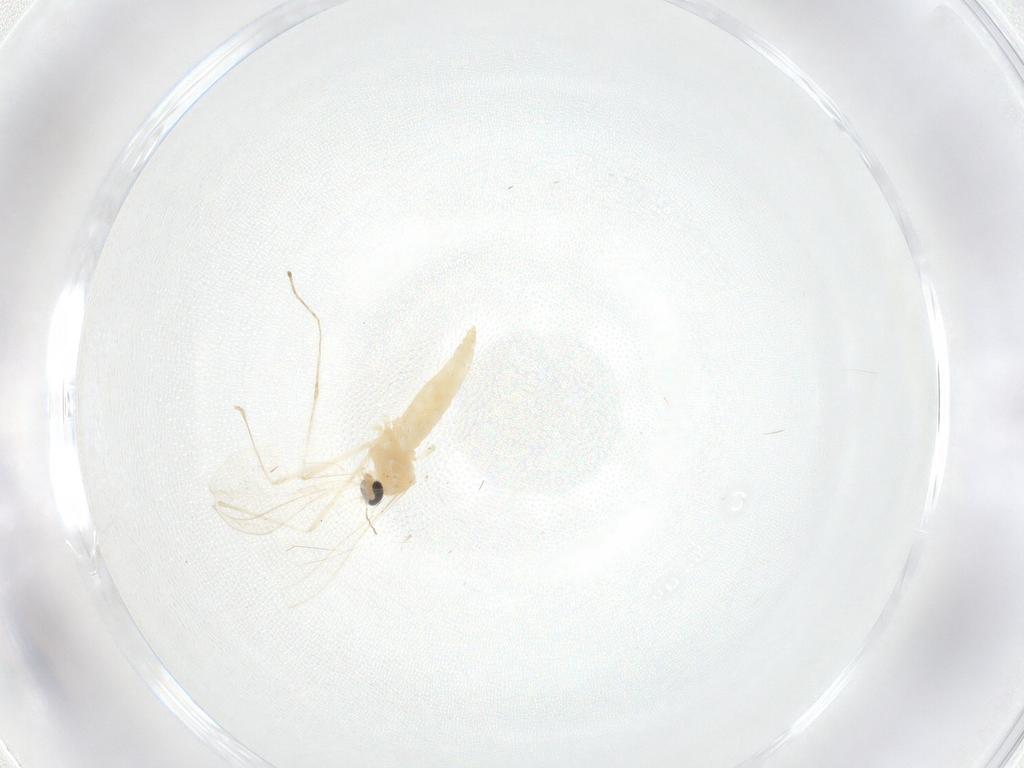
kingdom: Animalia
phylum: Arthropoda
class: Insecta
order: Diptera
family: Cecidomyiidae
